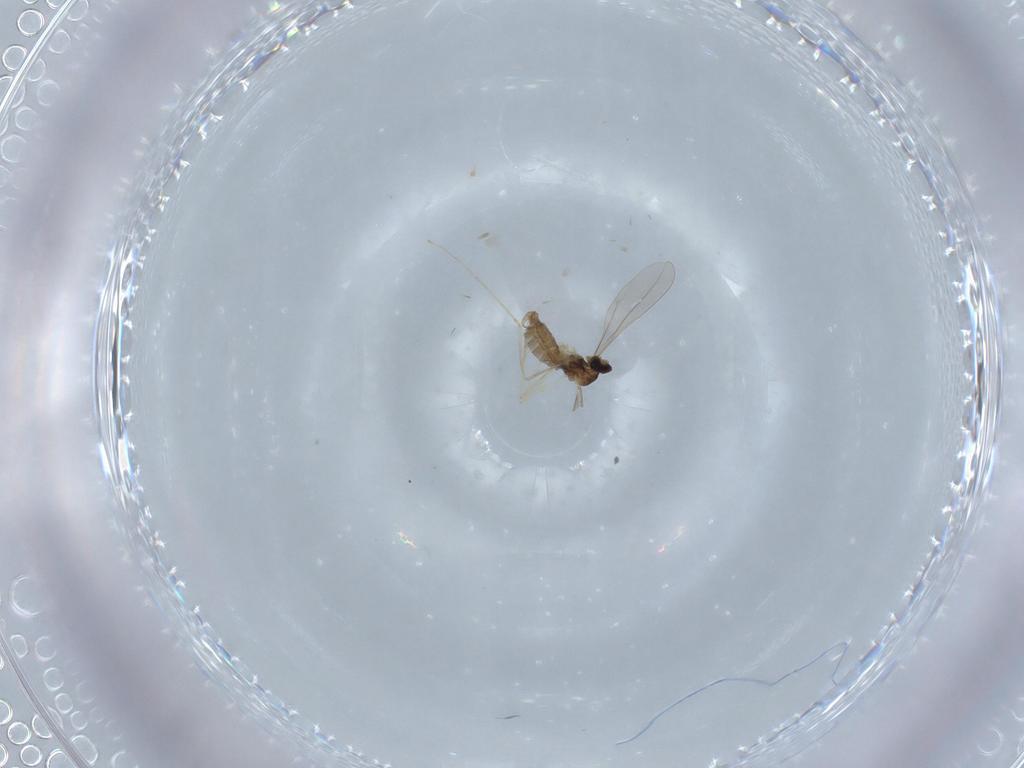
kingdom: Animalia
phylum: Arthropoda
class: Insecta
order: Diptera
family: Cecidomyiidae
